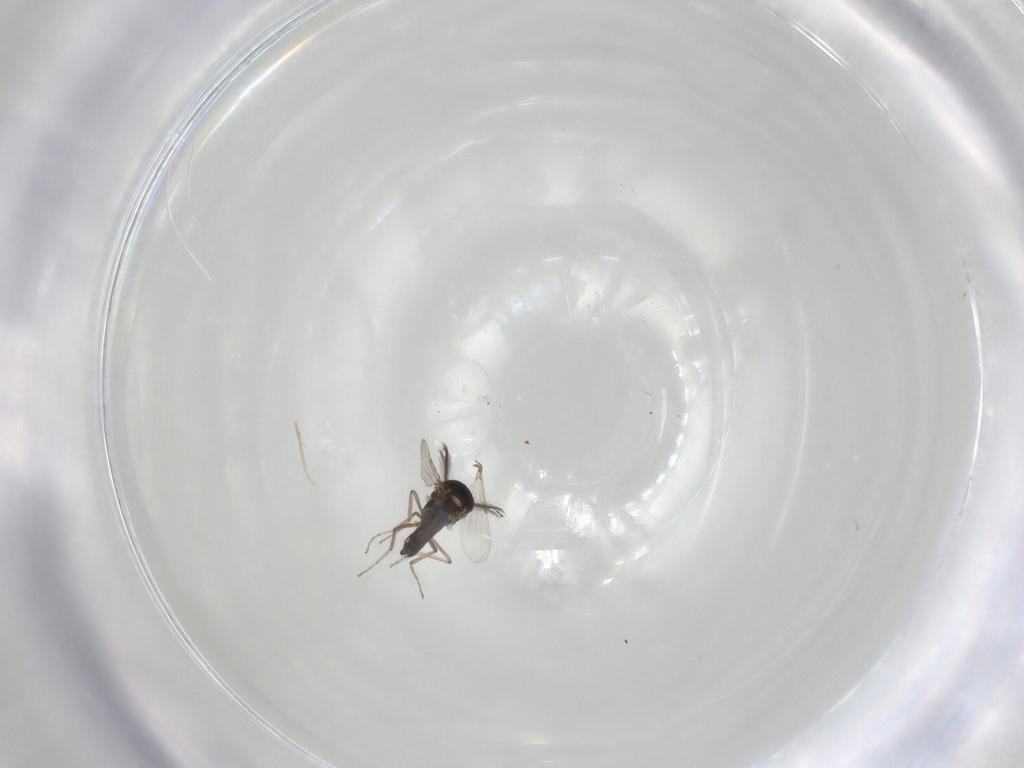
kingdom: Animalia
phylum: Arthropoda
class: Insecta
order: Diptera
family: Ceratopogonidae
